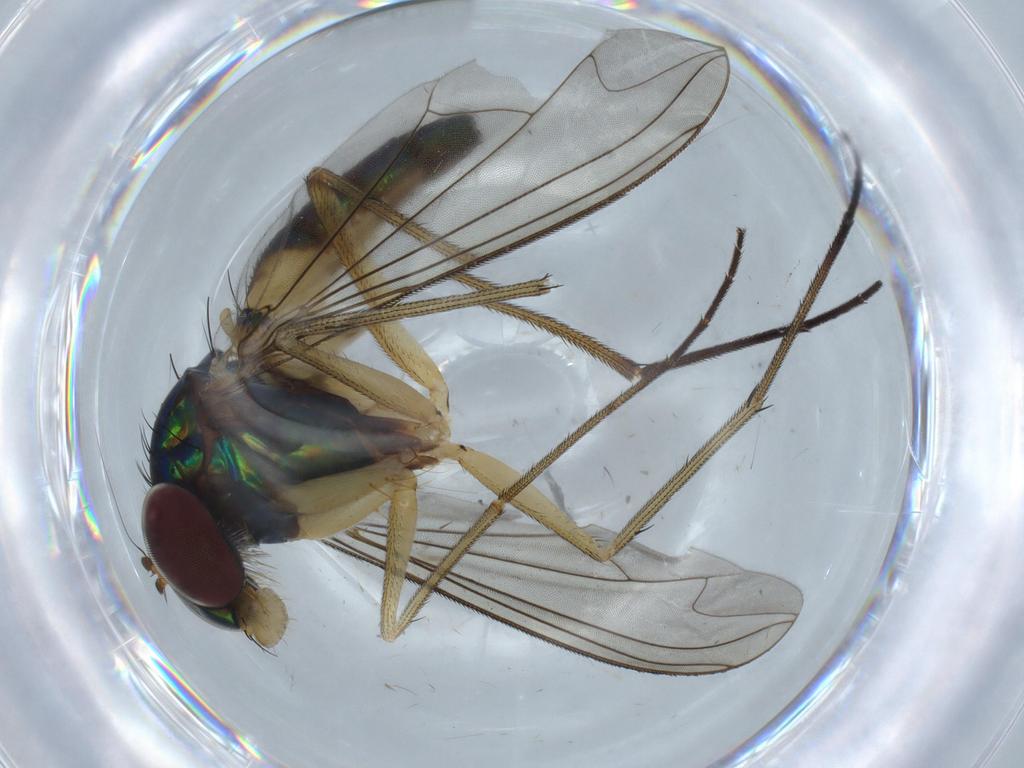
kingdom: Animalia
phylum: Arthropoda
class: Insecta
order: Diptera
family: Dolichopodidae
